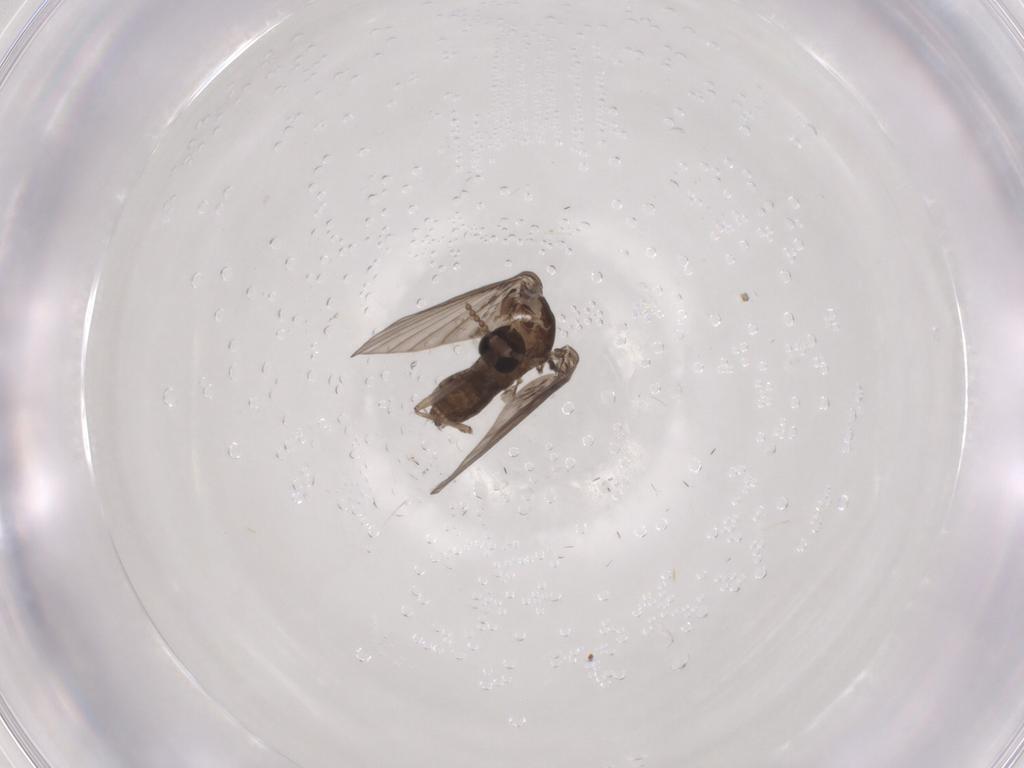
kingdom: Animalia
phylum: Arthropoda
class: Insecta
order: Diptera
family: Psychodidae
